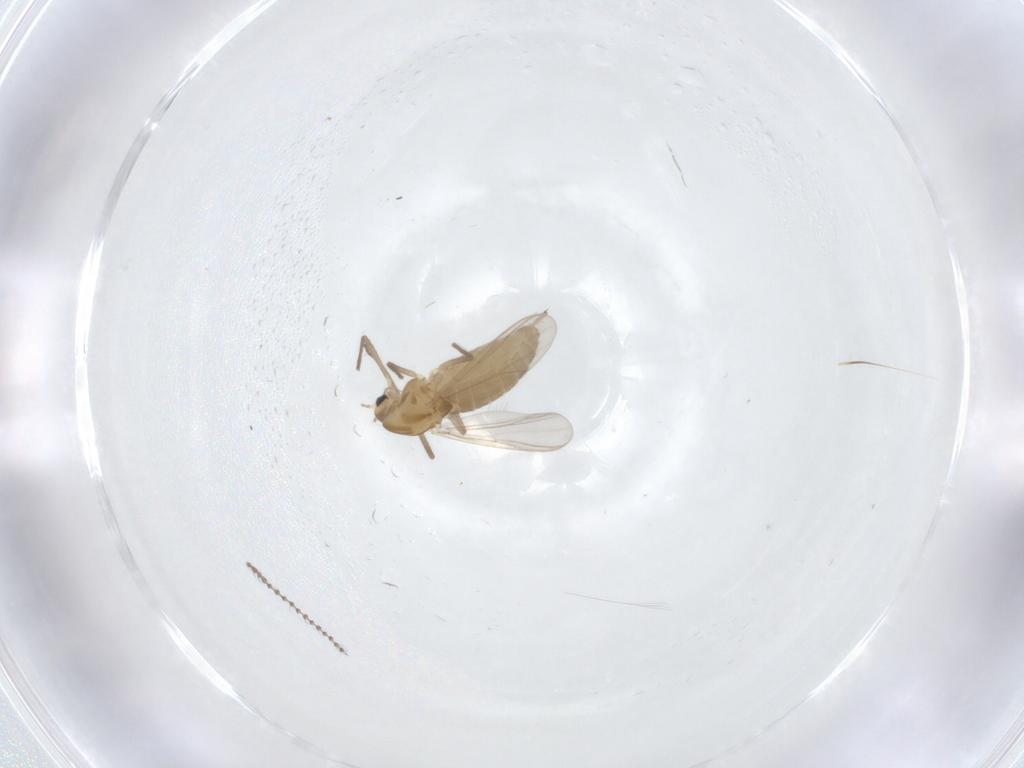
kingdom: Animalia
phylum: Arthropoda
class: Insecta
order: Diptera
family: Chironomidae
